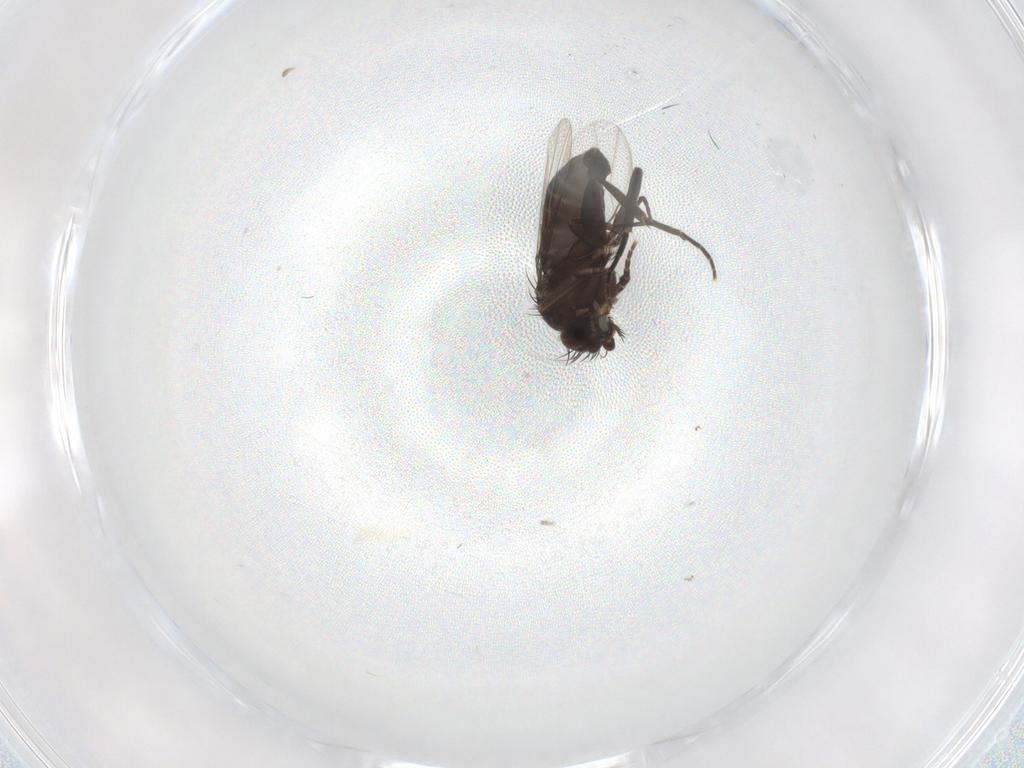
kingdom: Animalia
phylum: Arthropoda
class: Insecta
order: Diptera
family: Phoridae
